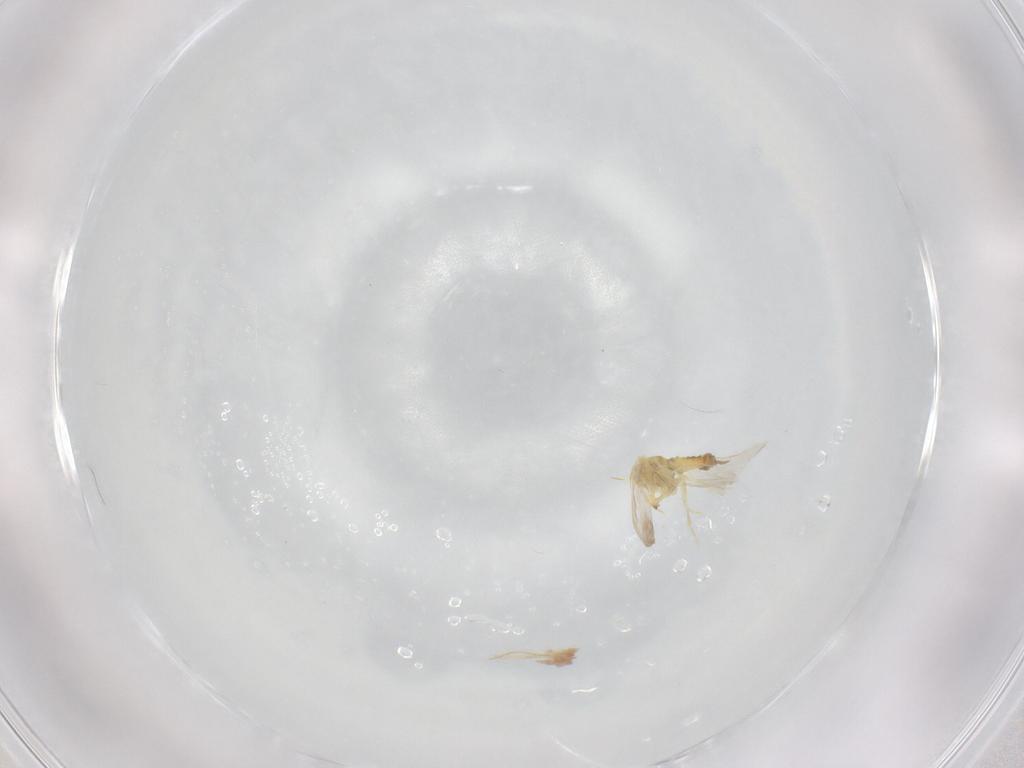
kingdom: Animalia
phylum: Arthropoda
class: Insecta
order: Hemiptera
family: Aleyrodidae
